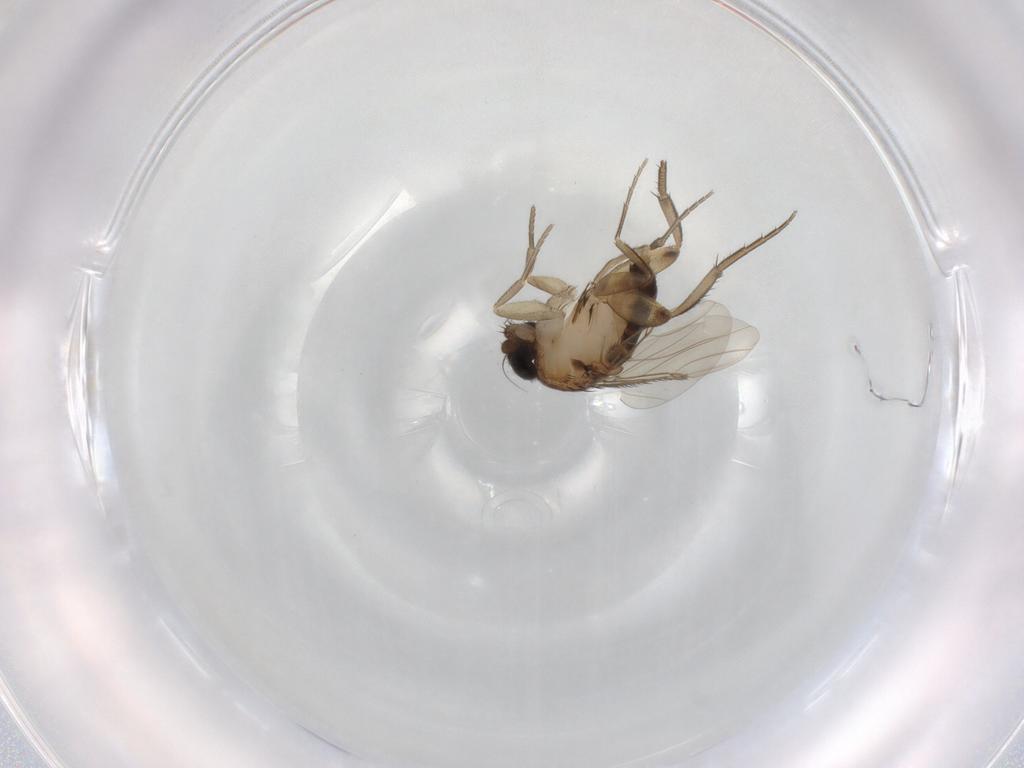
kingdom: Animalia
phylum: Arthropoda
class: Insecta
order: Diptera
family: Phoridae
